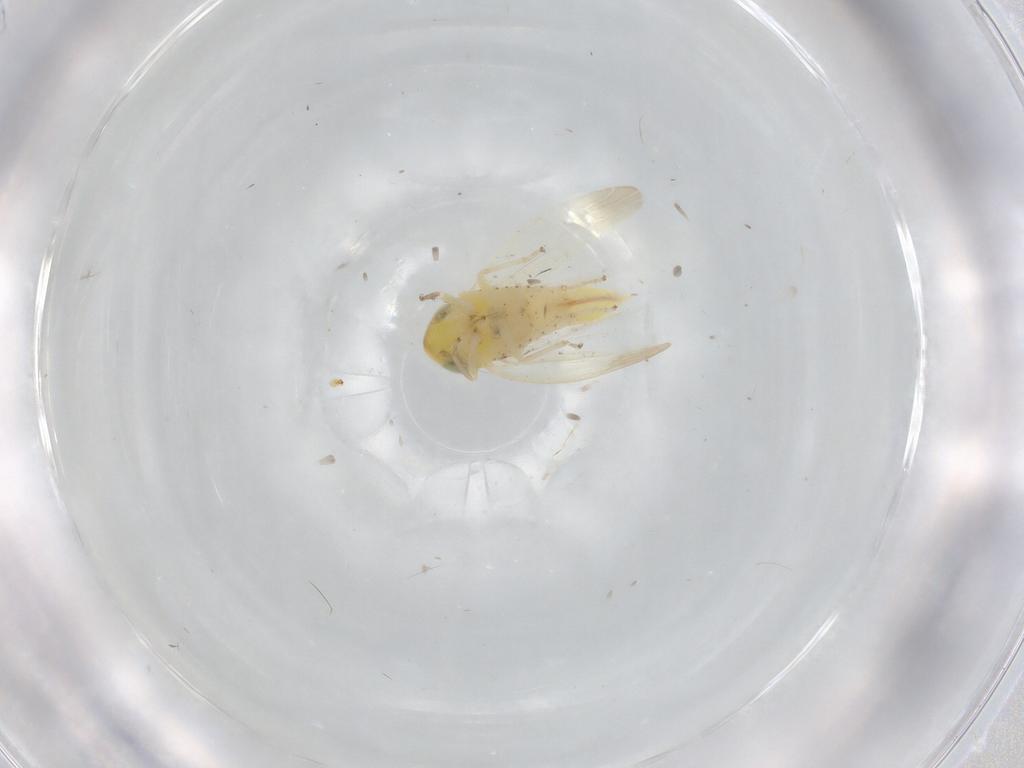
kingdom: Animalia
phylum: Arthropoda
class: Insecta
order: Hemiptera
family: Cicadellidae
